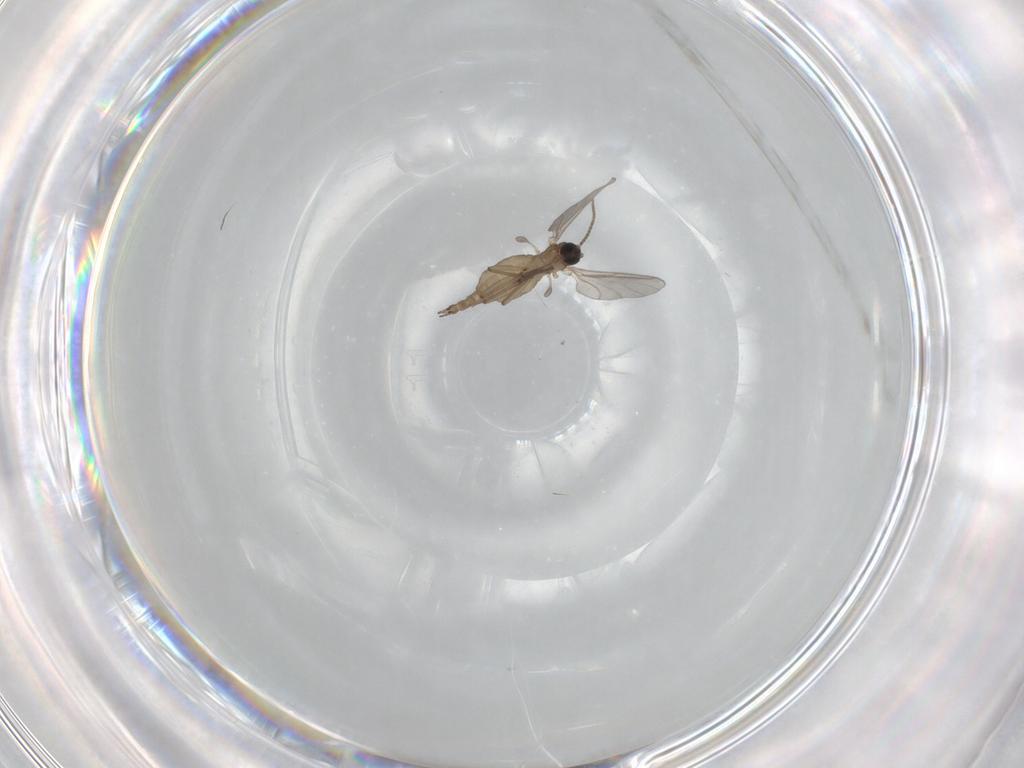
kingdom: Animalia
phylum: Arthropoda
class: Insecta
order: Diptera
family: Sciaridae
